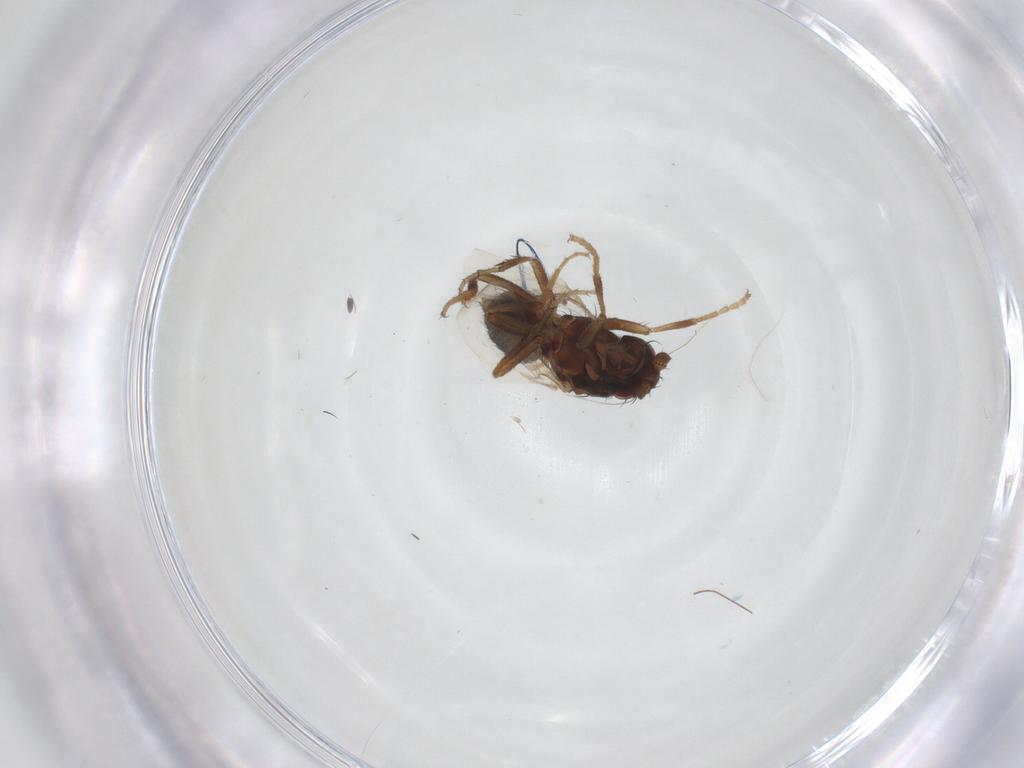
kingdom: Animalia
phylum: Arthropoda
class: Insecta
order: Diptera
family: Sphaeroceridae
